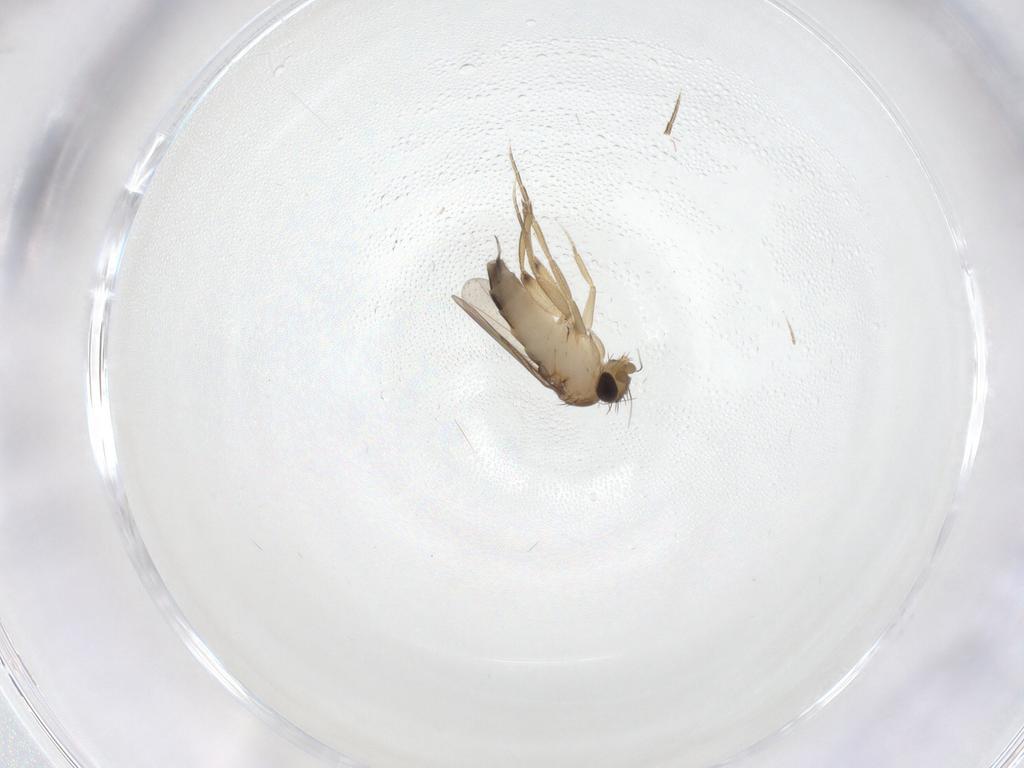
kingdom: Animalia
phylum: Arthropoda
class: Insecta
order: Diptera
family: Phoridae
